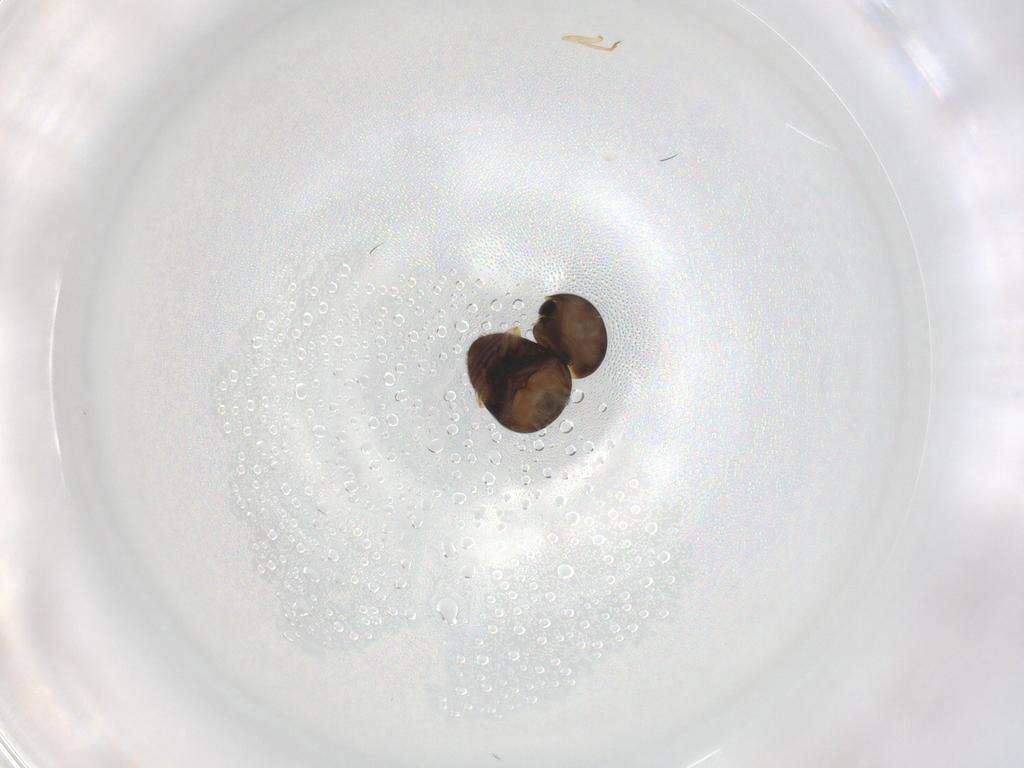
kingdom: Animalia
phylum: Arthropoda
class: Insecta
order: Coleoptera
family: Cybocephalidae
